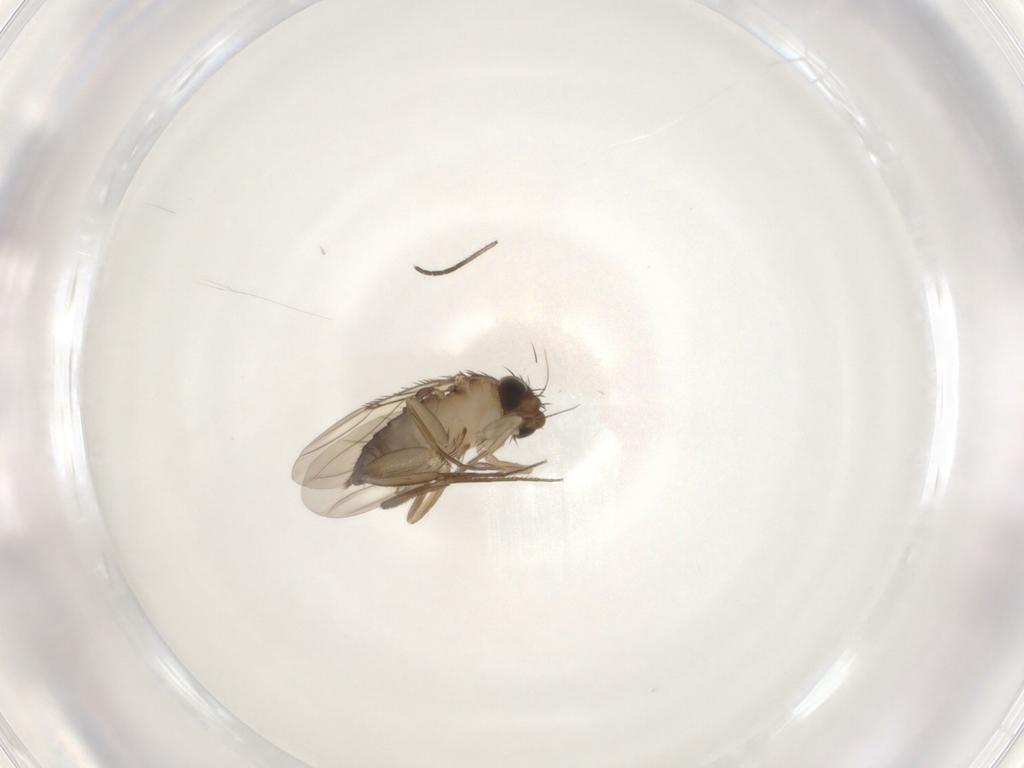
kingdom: Animalia
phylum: Arthropoda
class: Insecta
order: Diptera
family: Phoridae
